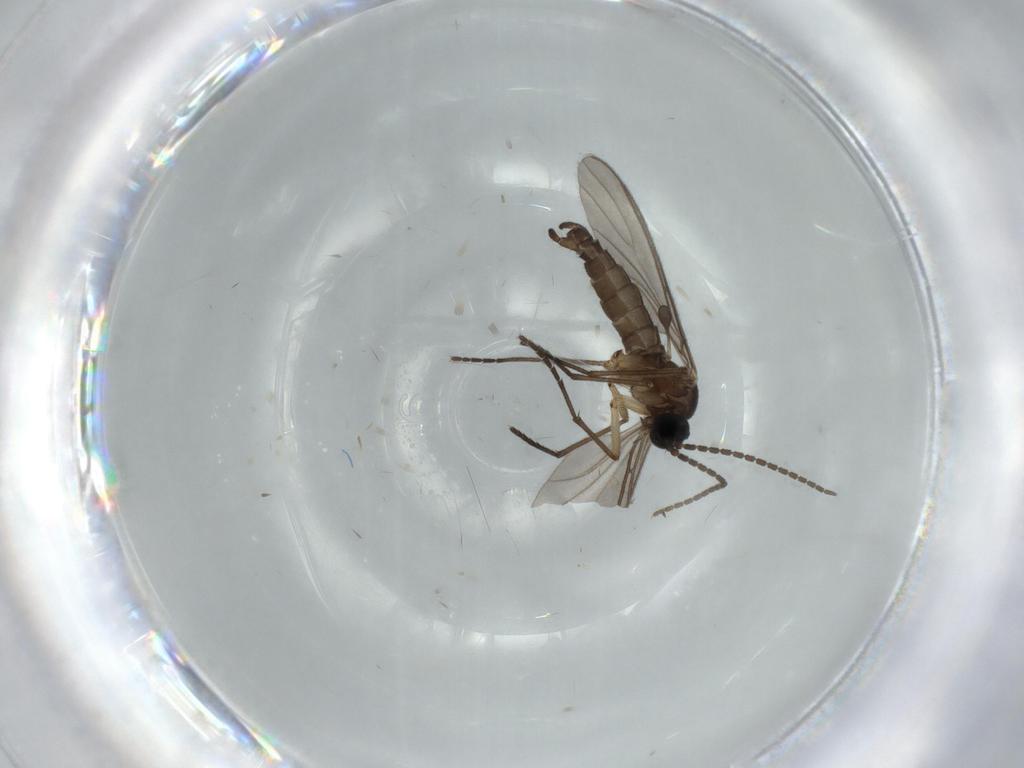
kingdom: Animalia
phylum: Arthropoda
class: Insecta
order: Diptera
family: Sciaridae
